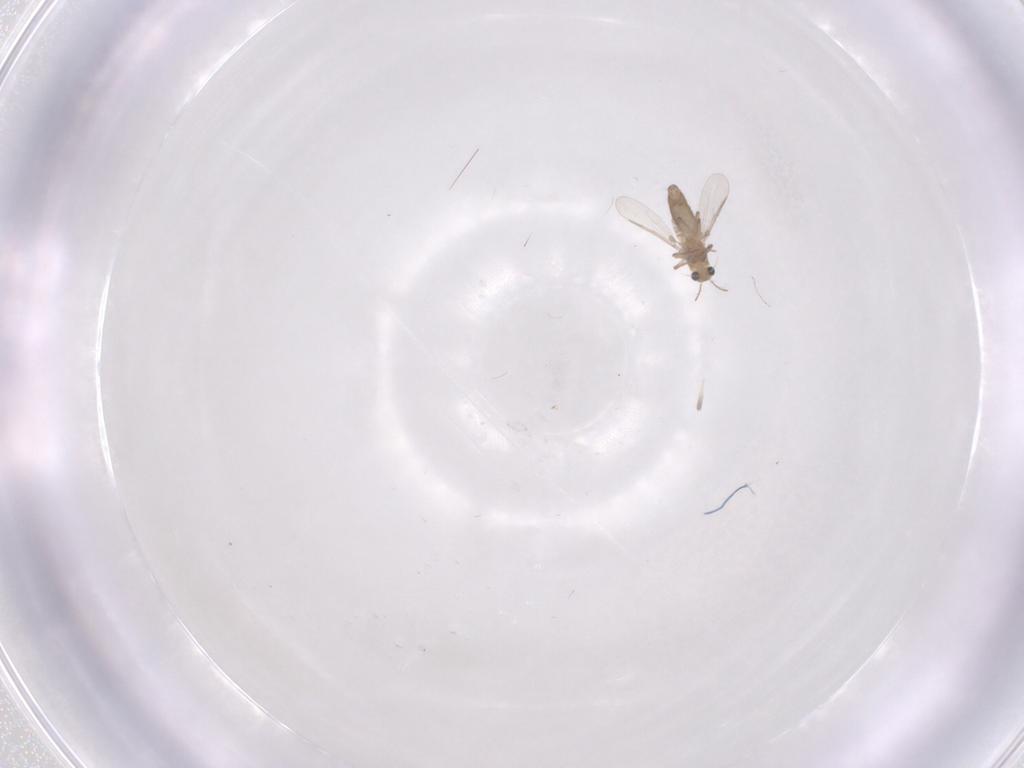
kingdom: Animalia
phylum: Arthropoda
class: Insecta
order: Diptera
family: Chironomidae
